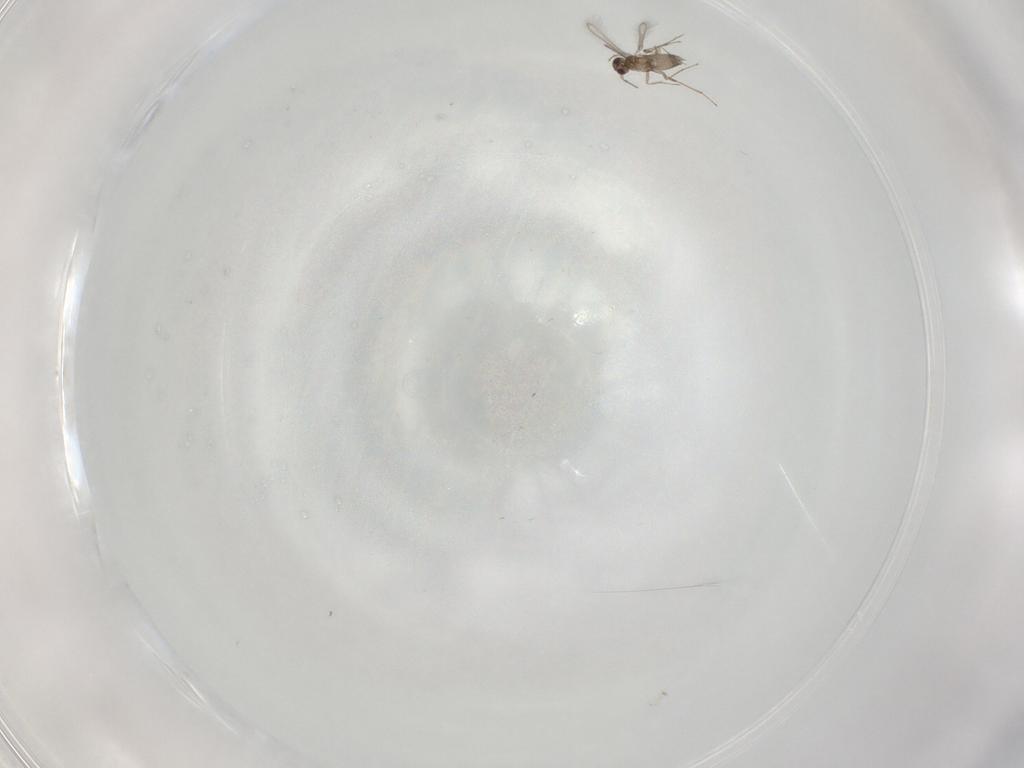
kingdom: Animalia
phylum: Arthropoda
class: Insecta
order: Hymenoptera
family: Mymaridae
